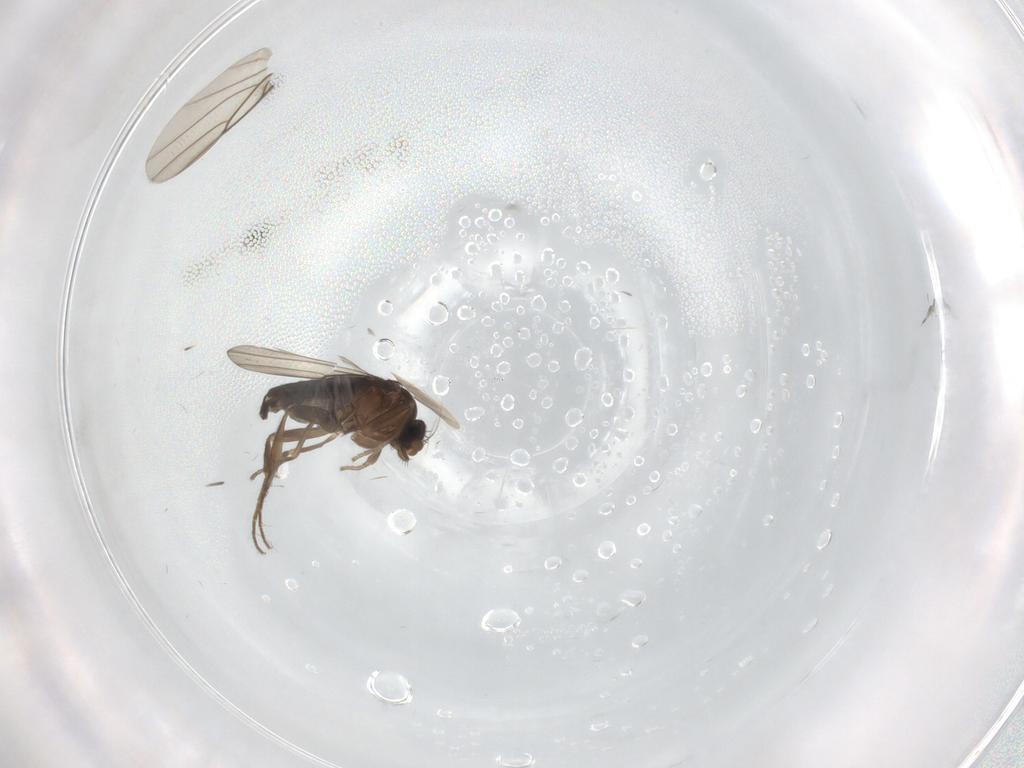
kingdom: Animalia
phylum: Arthropoda
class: Insecta
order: Diptera
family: Phoridae
